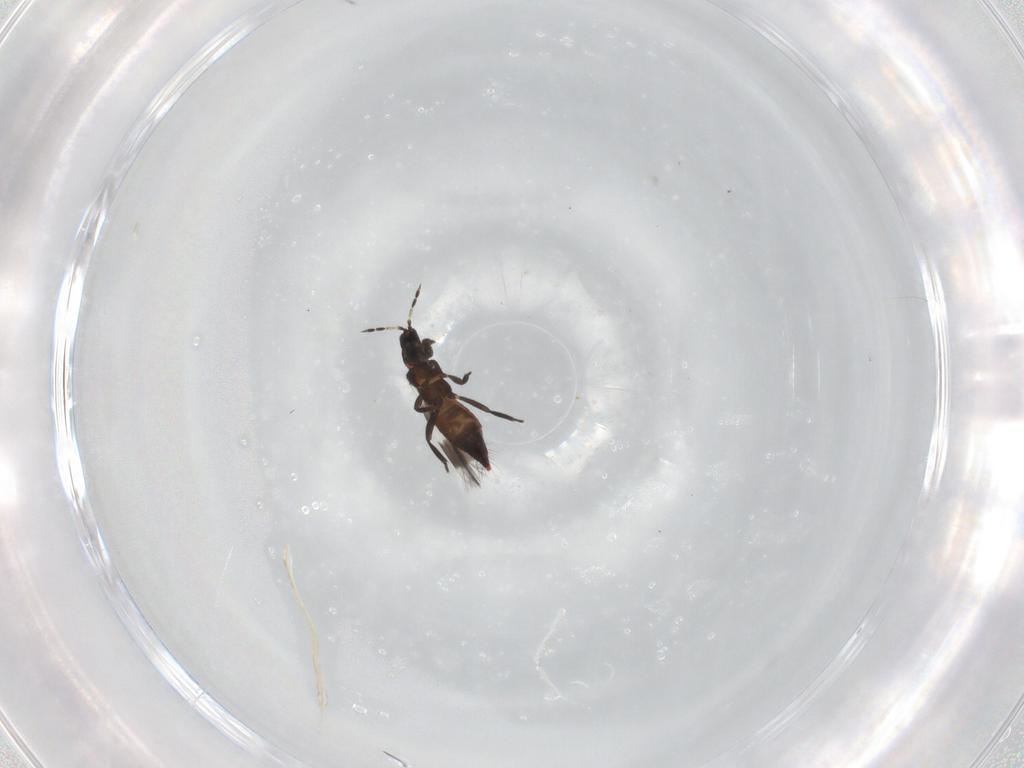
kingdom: Animalia
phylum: Arthropoda
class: Insecta
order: Thysanoptera
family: Aeolothripidae
